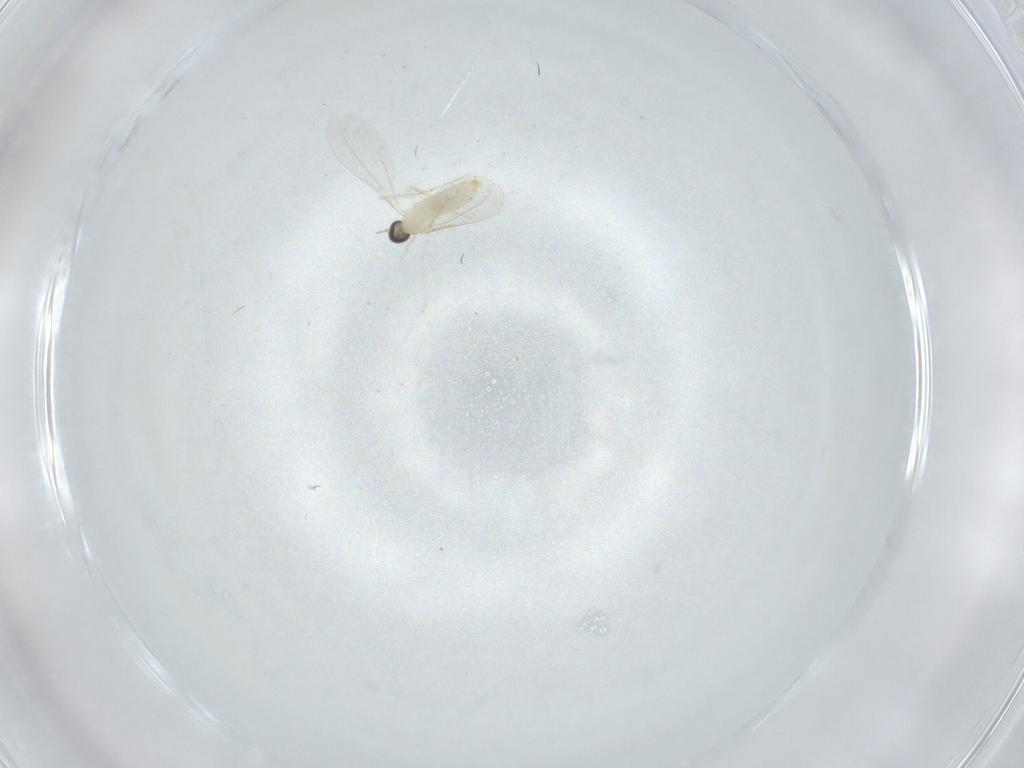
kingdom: Animalia
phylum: Arthropoda
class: Insecta
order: Diptera
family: Cecidomyiidae
